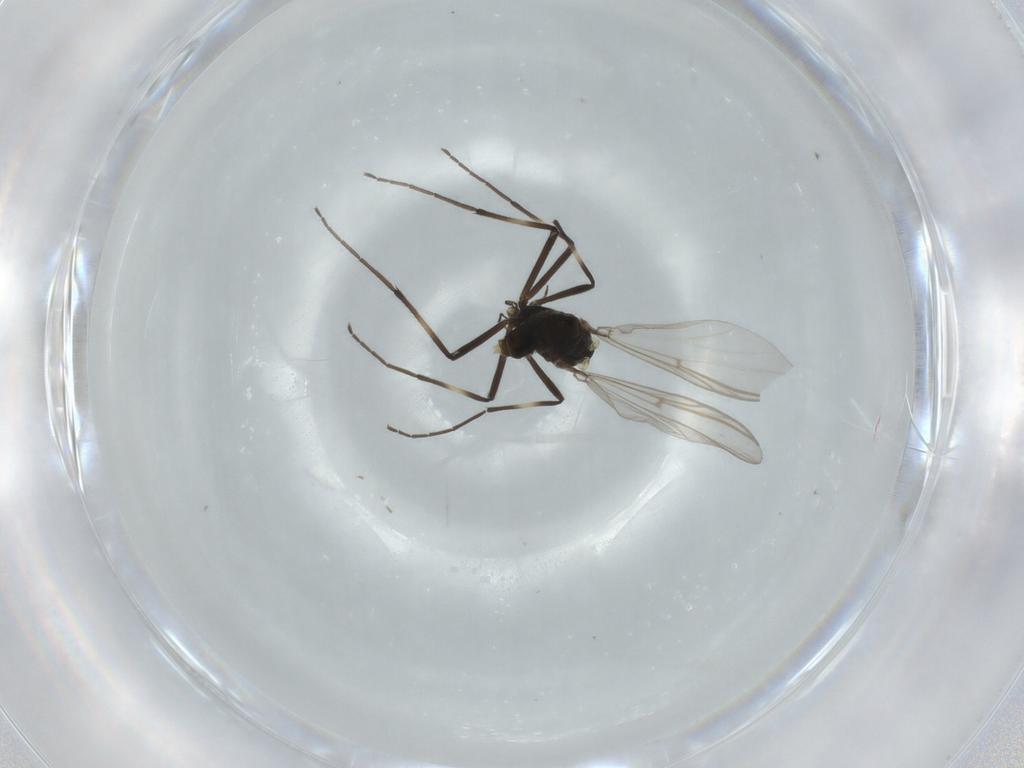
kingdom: Animalia
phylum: Arthropoda
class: Insecta
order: Diptera
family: Chironomidae
